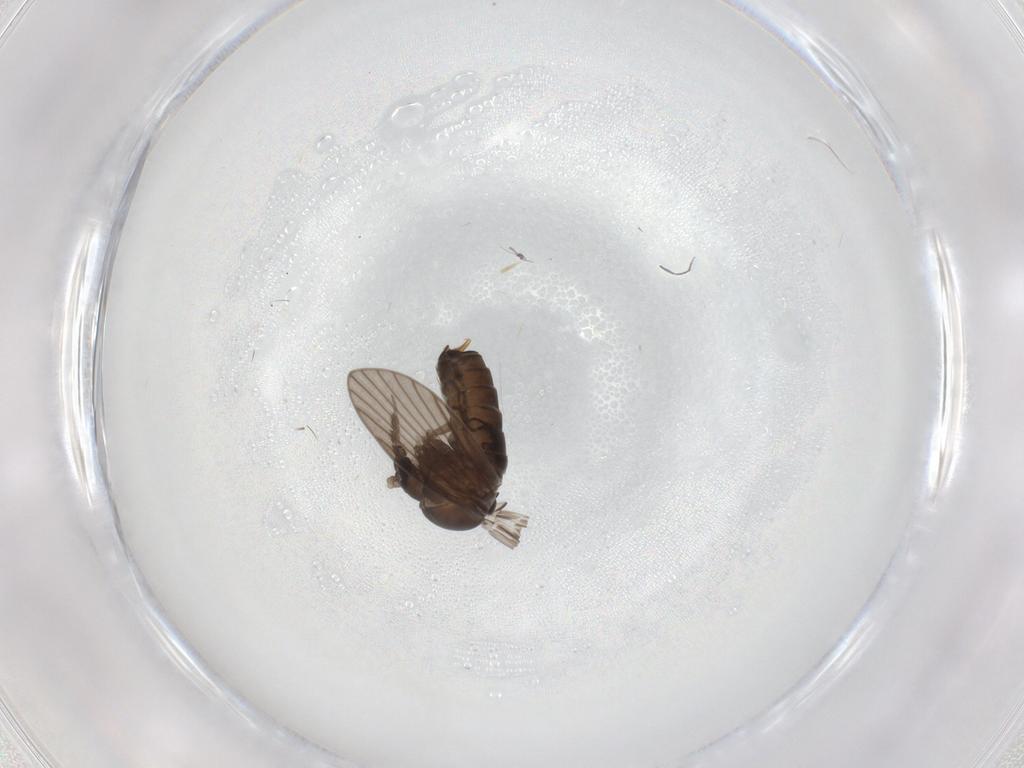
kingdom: Animalia
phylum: Arthropoda
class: Insecta
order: Diptera
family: Psychodidae
